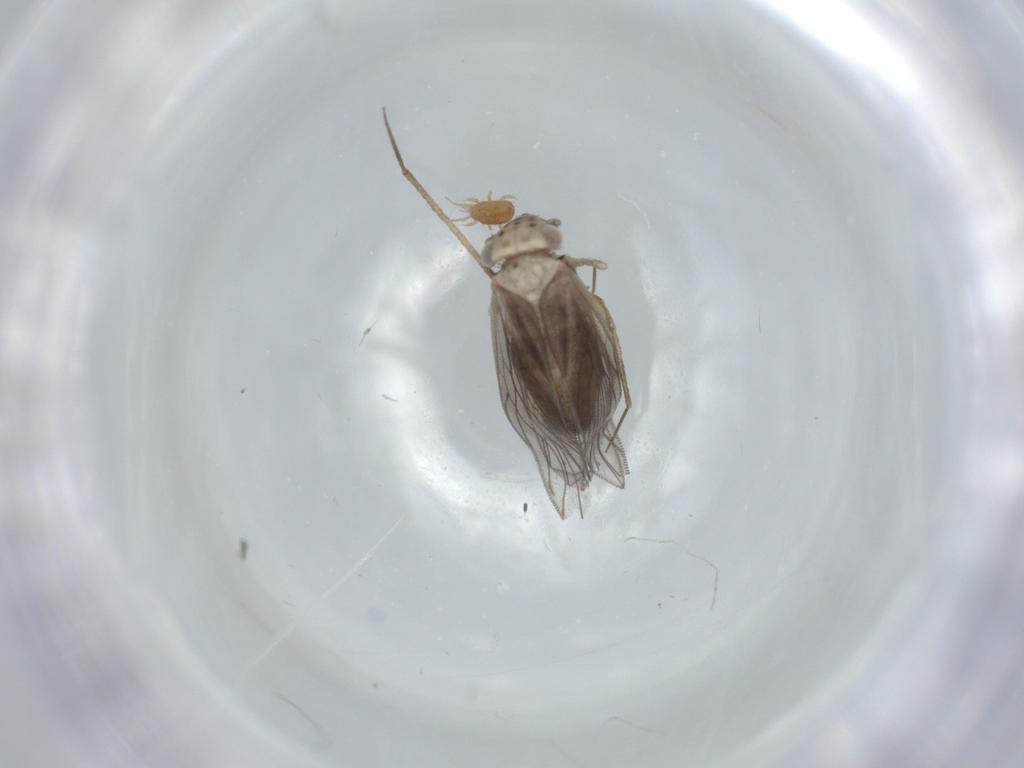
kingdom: Animalia
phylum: Arthropoda
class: Insecta
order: Psocodea
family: Lepidopsocidae
